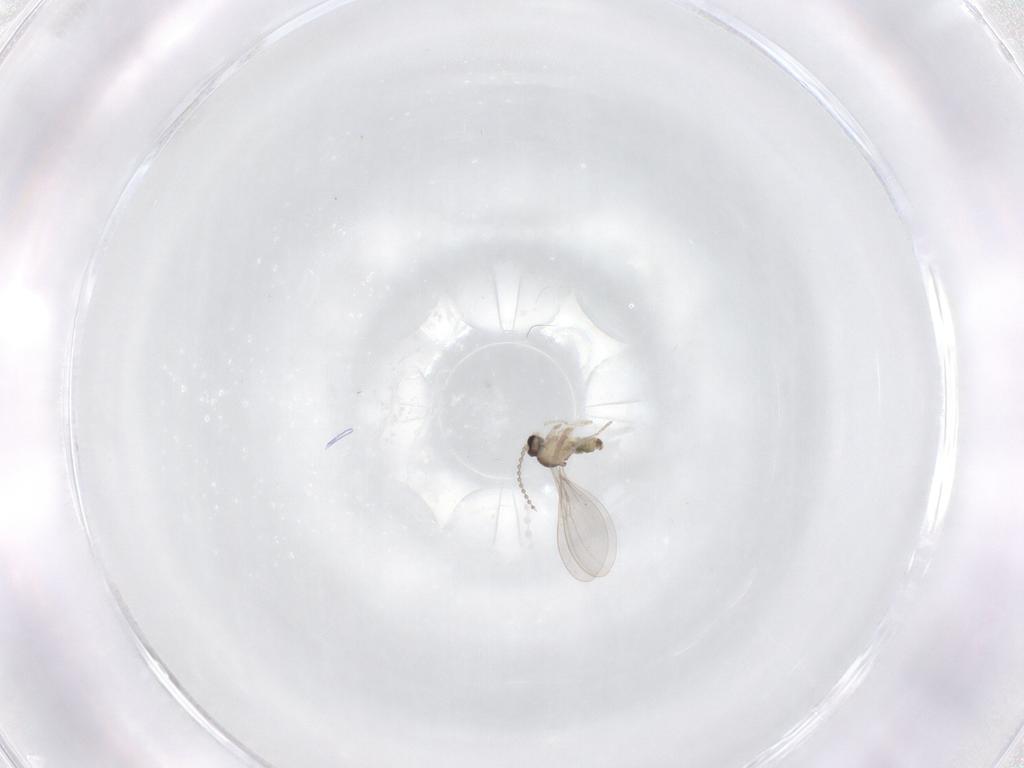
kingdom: Animalia
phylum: Arthropoda
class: Insecta
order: Diptera
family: Cecidomyiidae
